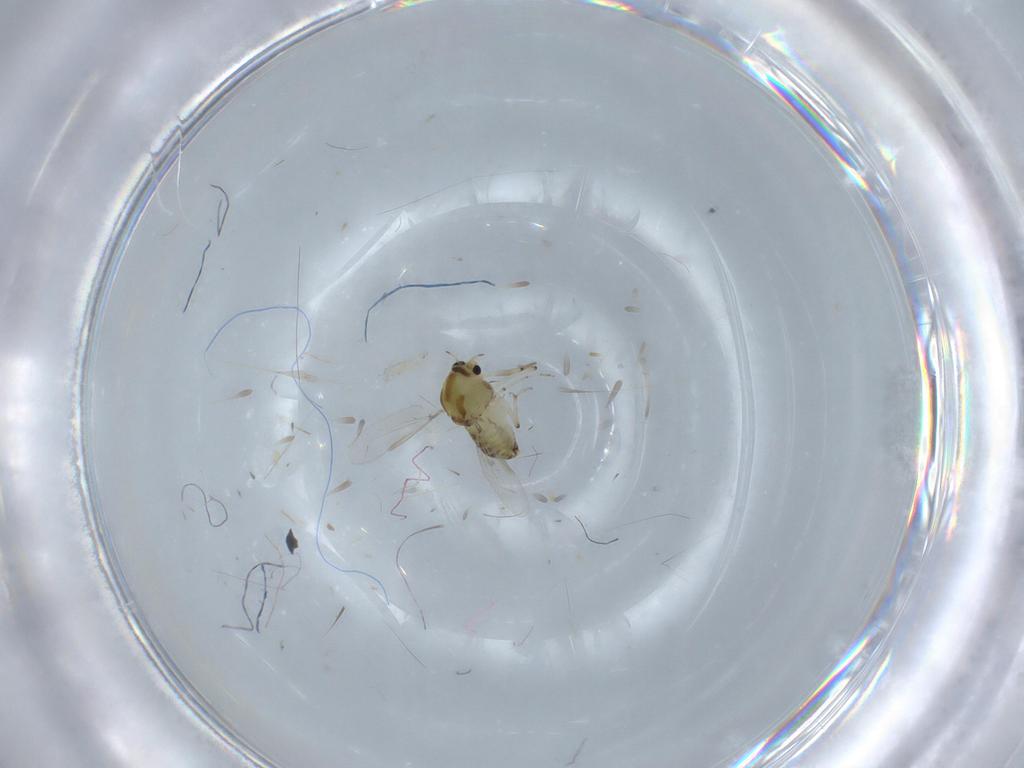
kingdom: Animalia
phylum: Arthropoda
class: Insecta
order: Diptera
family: Chironomidae
